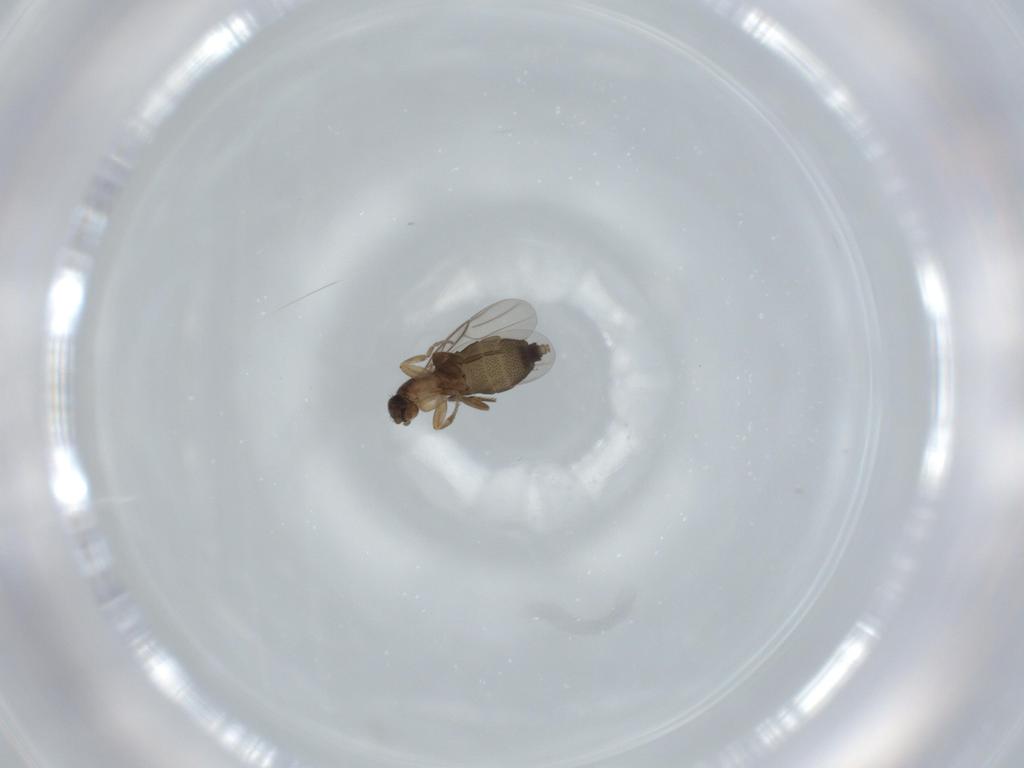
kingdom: Animalia
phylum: Arthropoda
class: Insecta
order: Diptera
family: Phoridae
